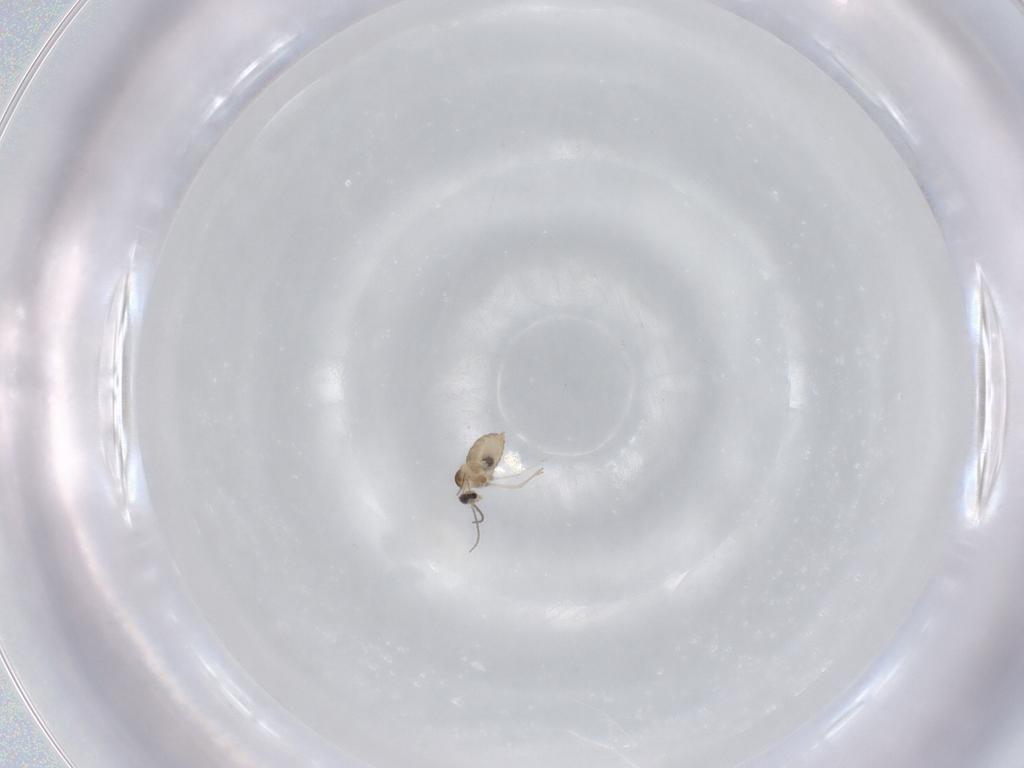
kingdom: Animalia
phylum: Arthropoda
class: Insecta
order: Diptera
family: Cecidomyiidae
